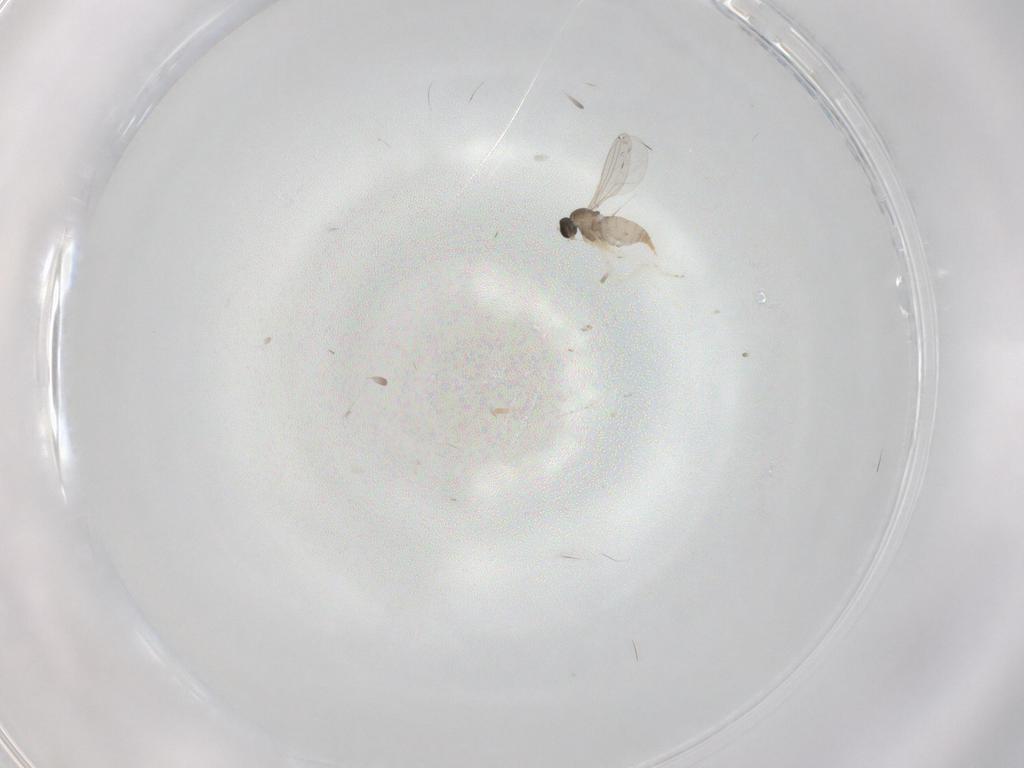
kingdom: Animalia
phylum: Arthropoda
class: Insecta
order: Diptera
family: Cecidomyiidae
